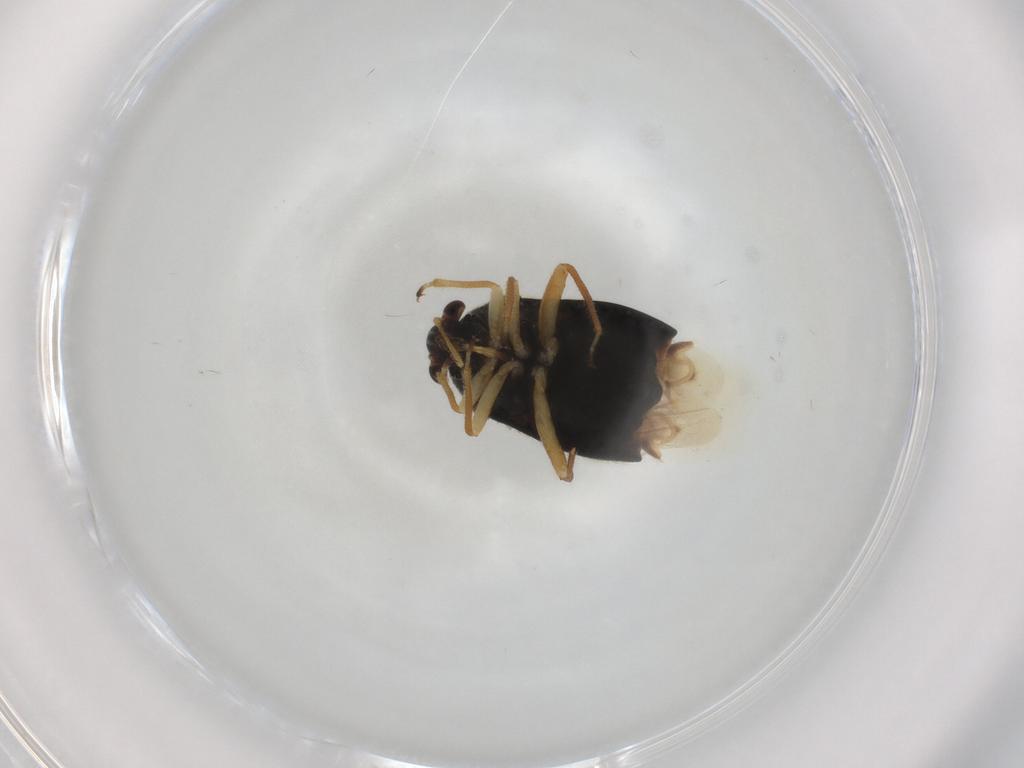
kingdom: Animalia
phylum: Arthropoda
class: Insecta
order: Hemiptera
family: Miridae
